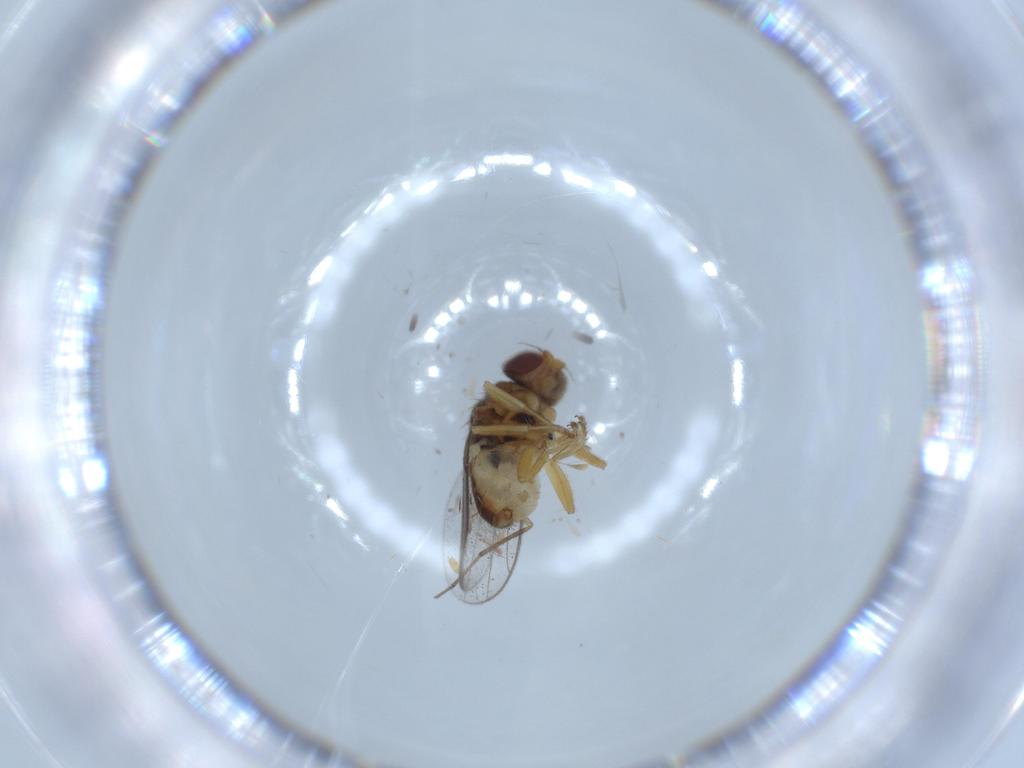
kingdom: Animalia
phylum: Arthropoda
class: Insecta
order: Diptera
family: Chloropidae
